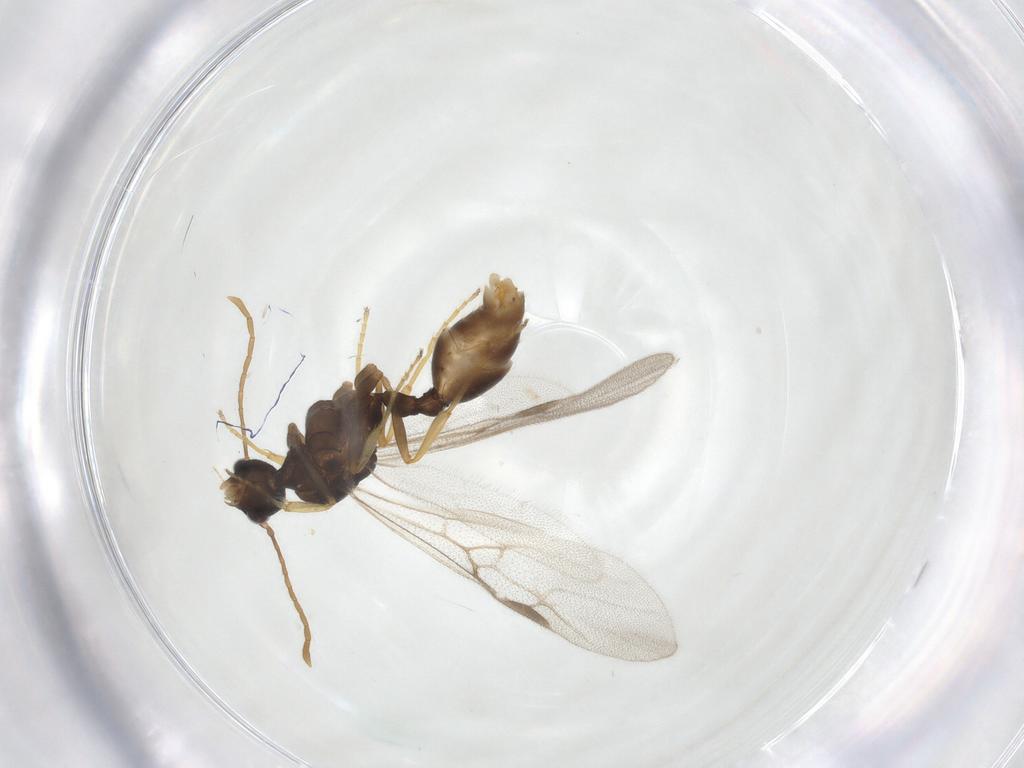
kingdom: Animalia
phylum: Arthropoda
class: Insecta
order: Hymenoptera
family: Formicidae
